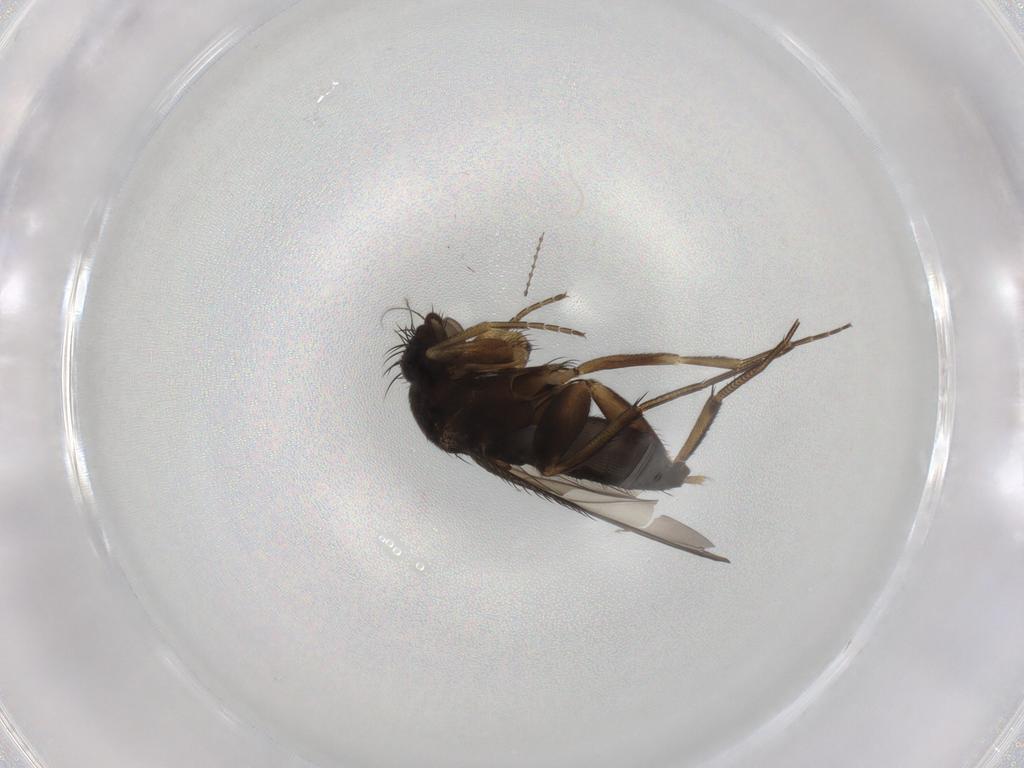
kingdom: Animalia
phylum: Arthropoda
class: Insecta
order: Diptera
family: Phoridae
